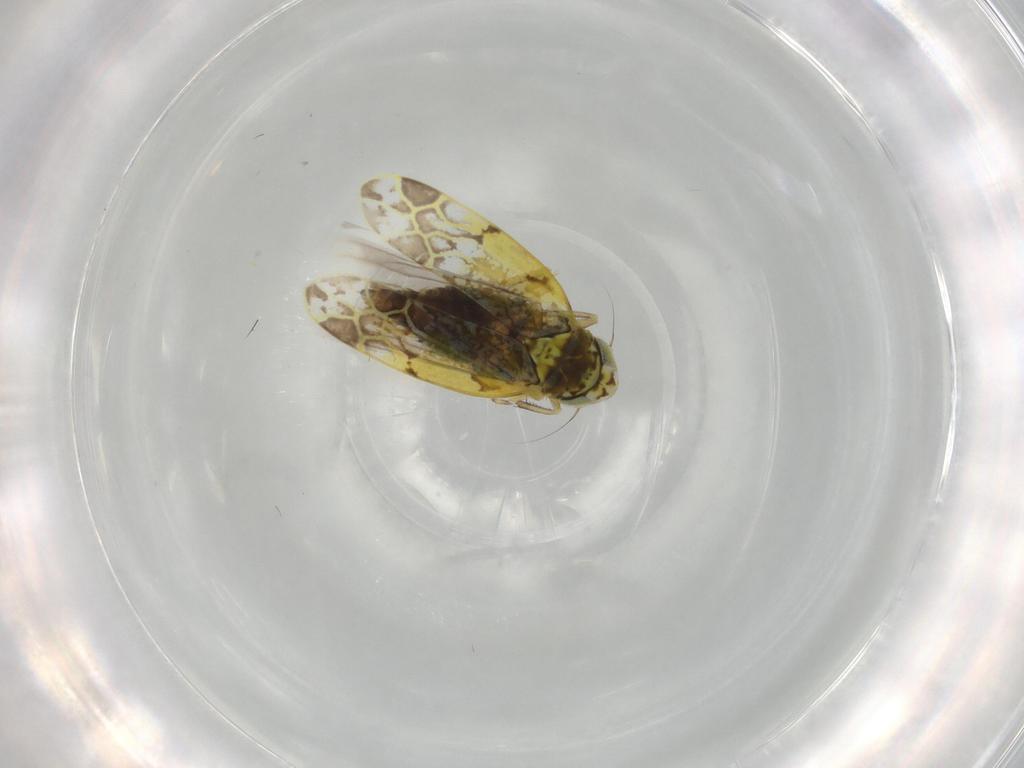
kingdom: Animalia
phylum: Arthropoda
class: Insecta
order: Hemiptera
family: Cicadellidae
